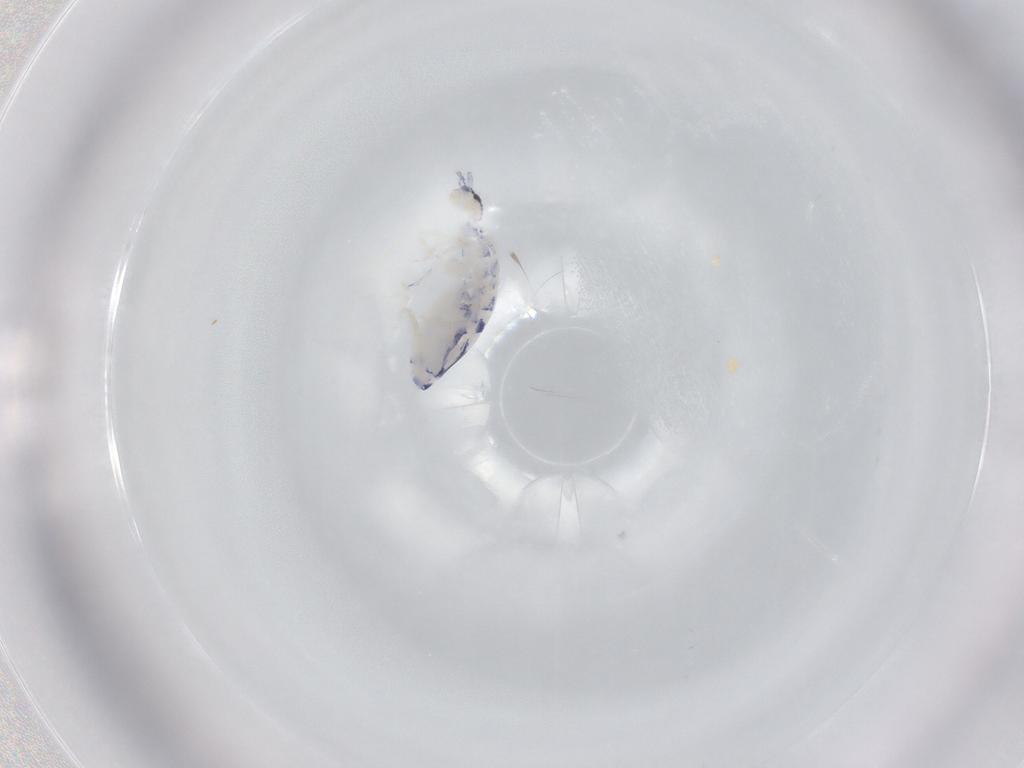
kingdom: Animalia
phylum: Arthropoda
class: Collembola
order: Entomobryomorpha
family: Entomobryidae
